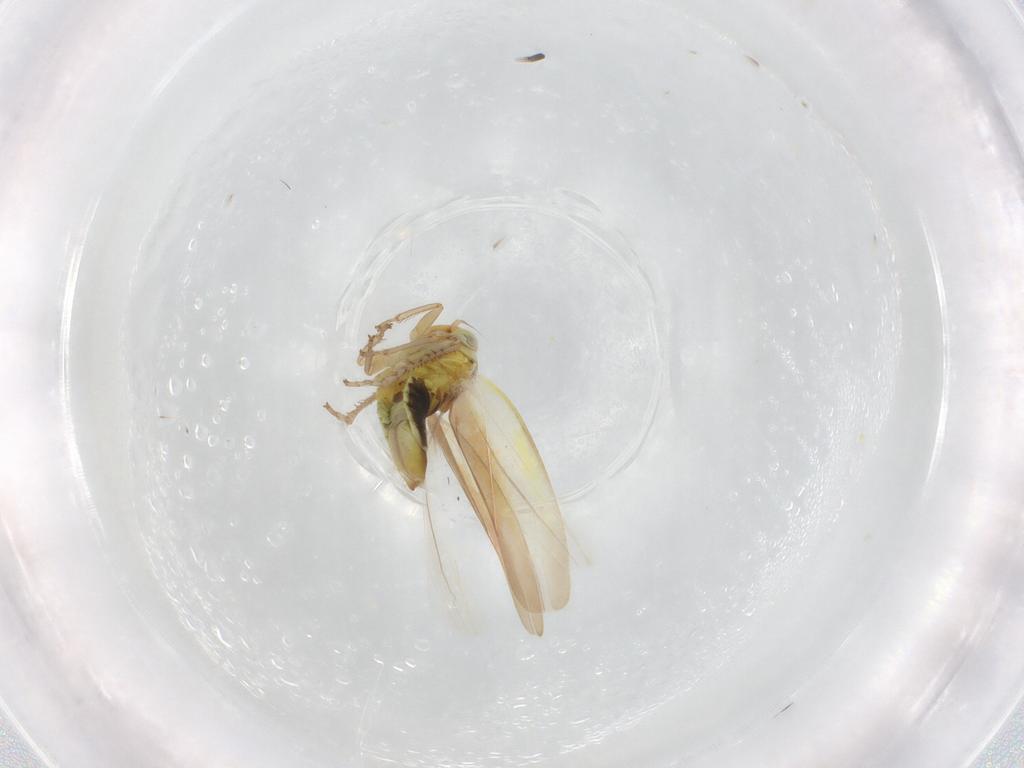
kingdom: Animalia
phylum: Arthropoda
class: Insecta
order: Hemiptera
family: Cicadellidae
